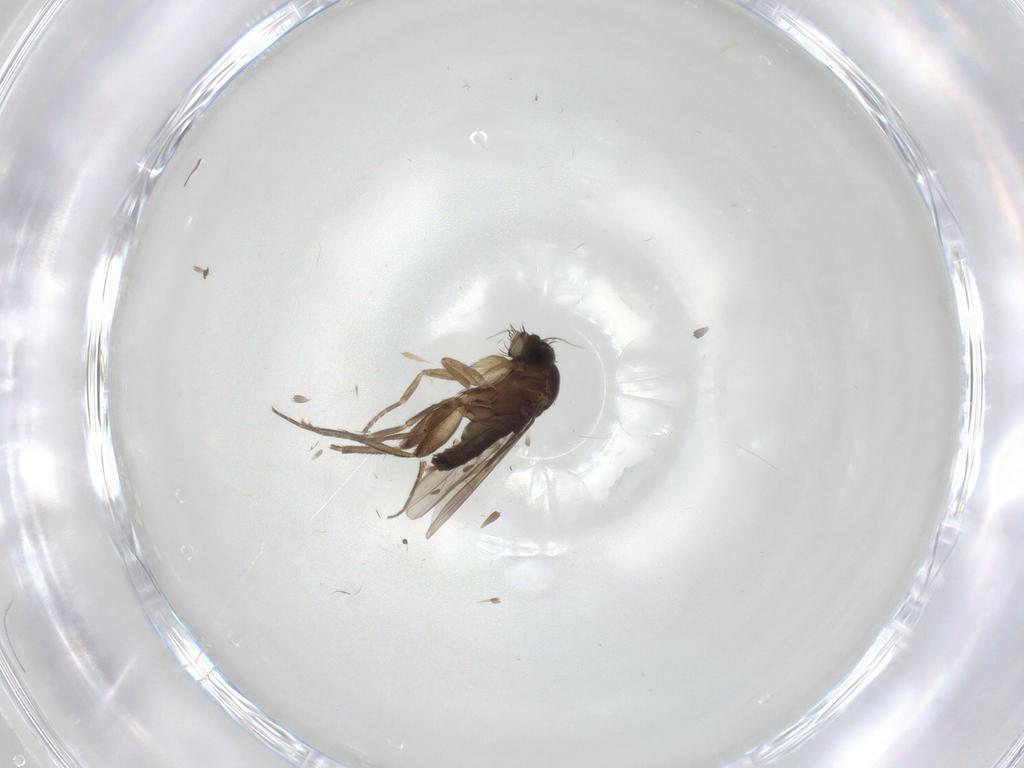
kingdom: Animalia
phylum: Arthropoda
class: Insecta
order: Diptera
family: Phoridae
